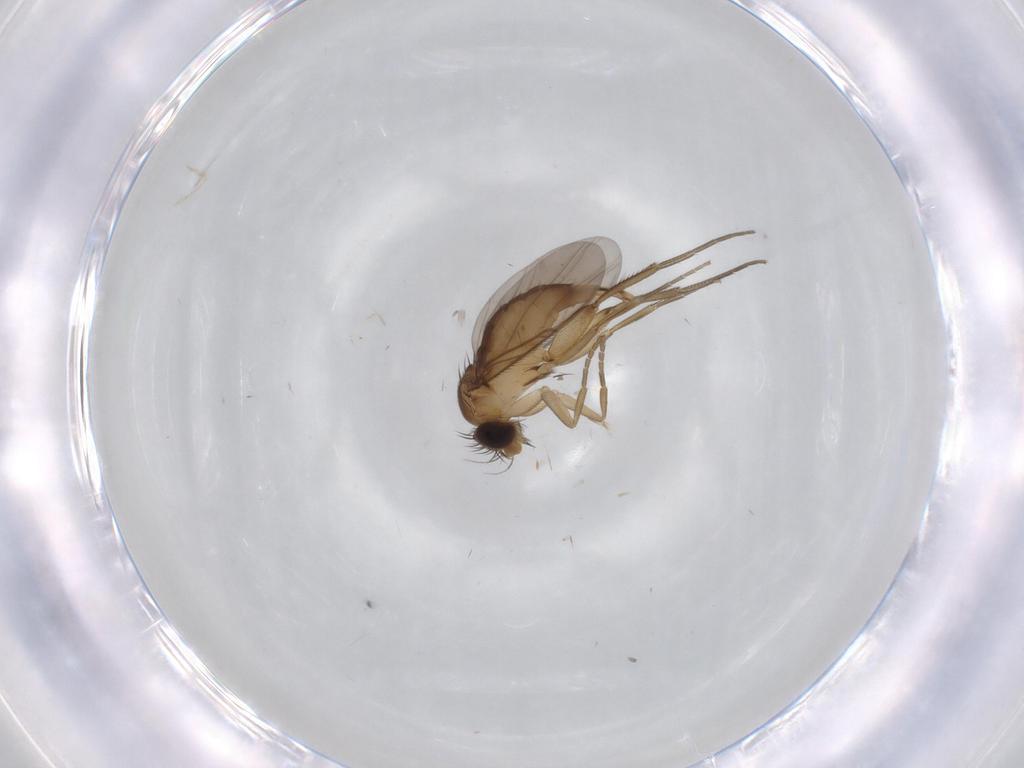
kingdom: Animalia
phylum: Arthropoda
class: Insecta
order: Diptera
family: Phoridae
